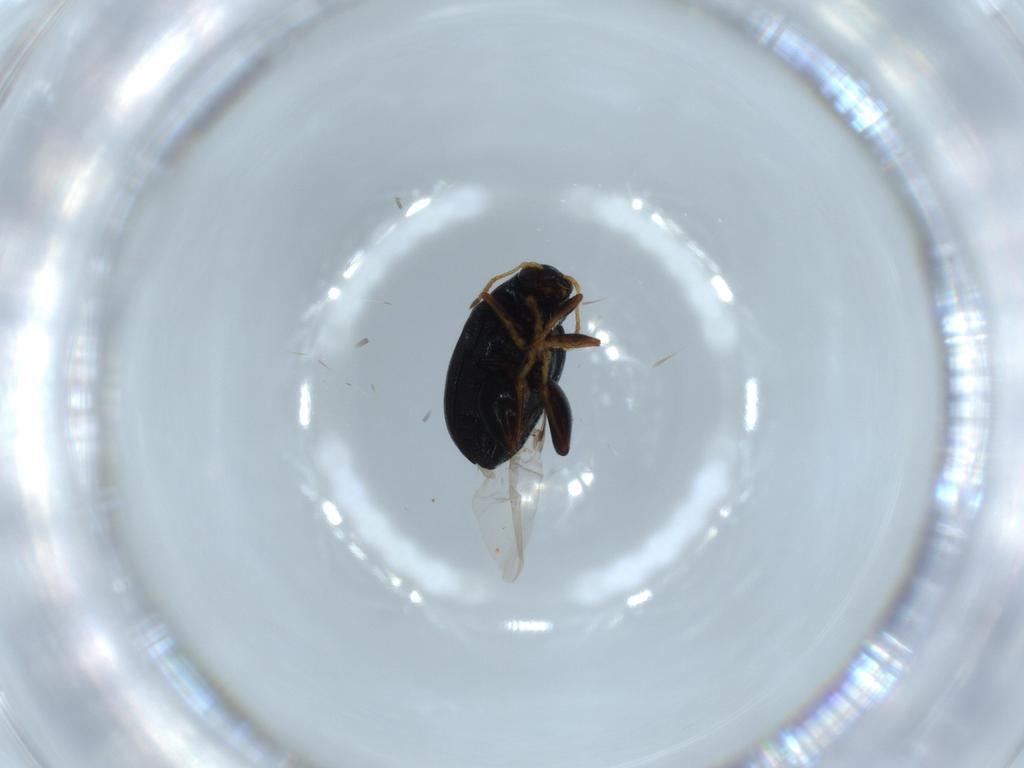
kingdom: Animalia
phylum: Arthropoda
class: Insecta
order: Coleoptera
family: Chrysomelidae
